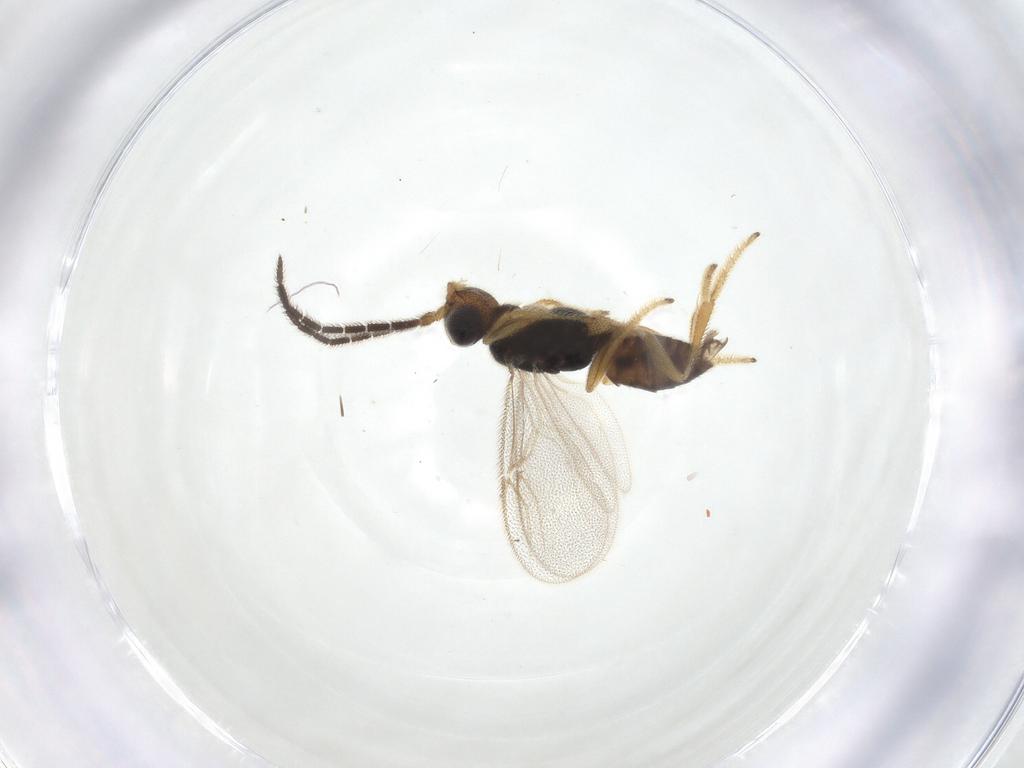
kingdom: Animalia
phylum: Arthropoda
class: Insecta
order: Hymenoptera
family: Dryinidae
